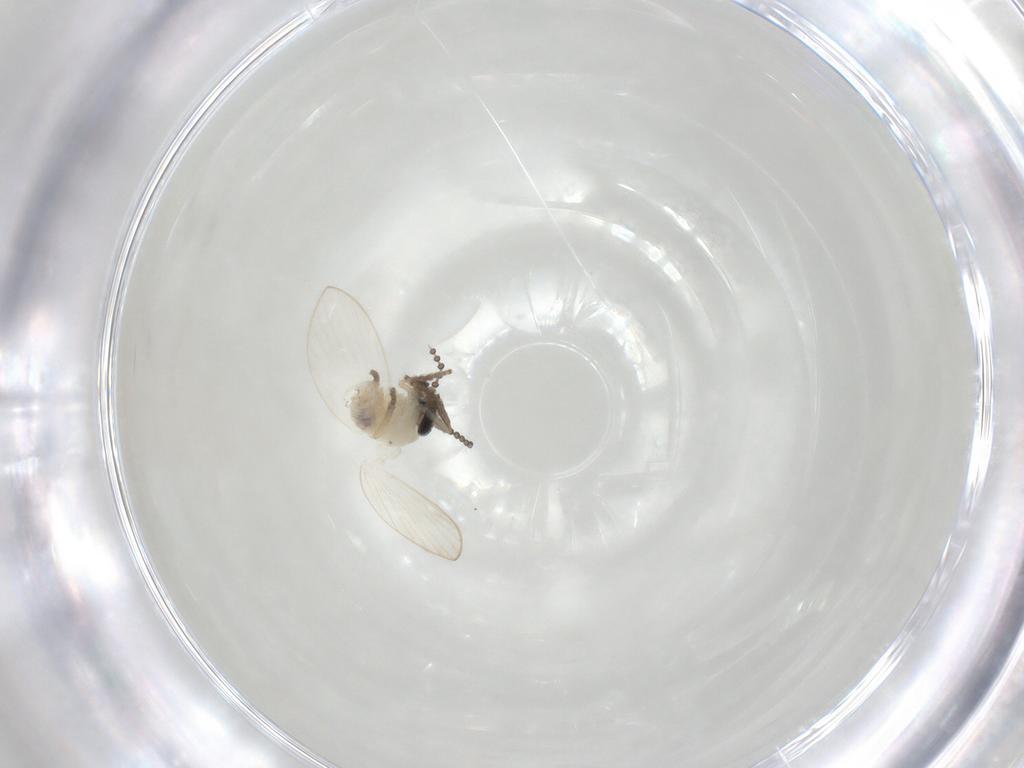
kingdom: Animalia
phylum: Arthropoda
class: Insecta
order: Diptera
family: Psychodidae
